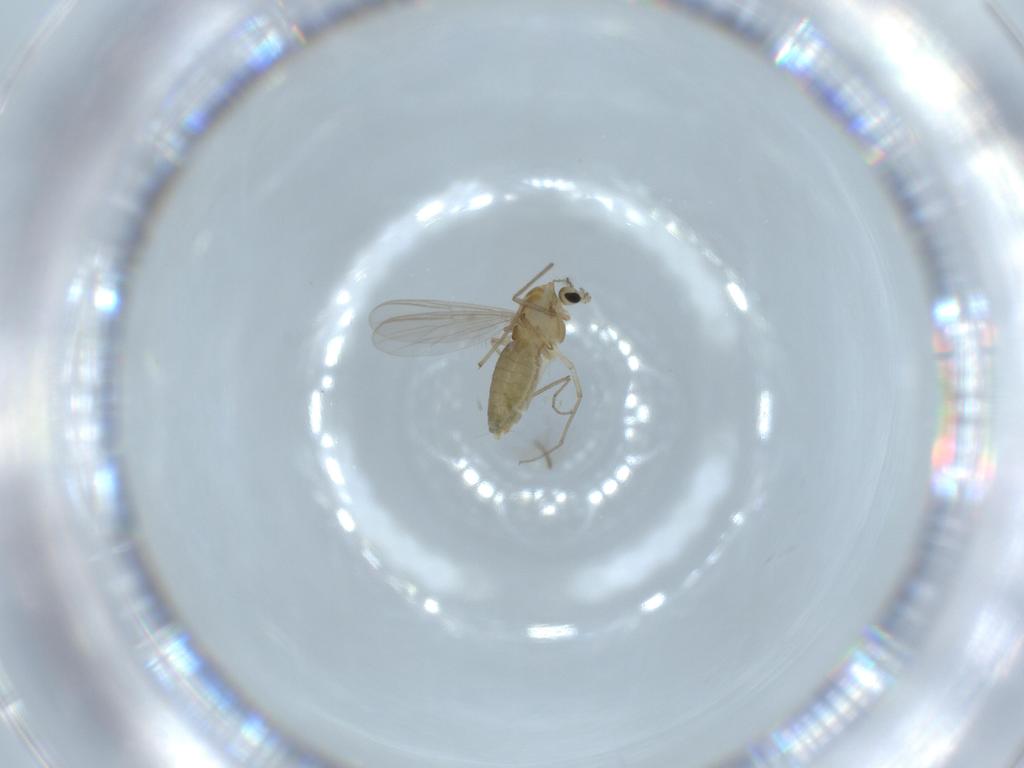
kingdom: Animalia
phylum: Arthropoda
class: Insecta
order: Diptera
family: Chironomidae
